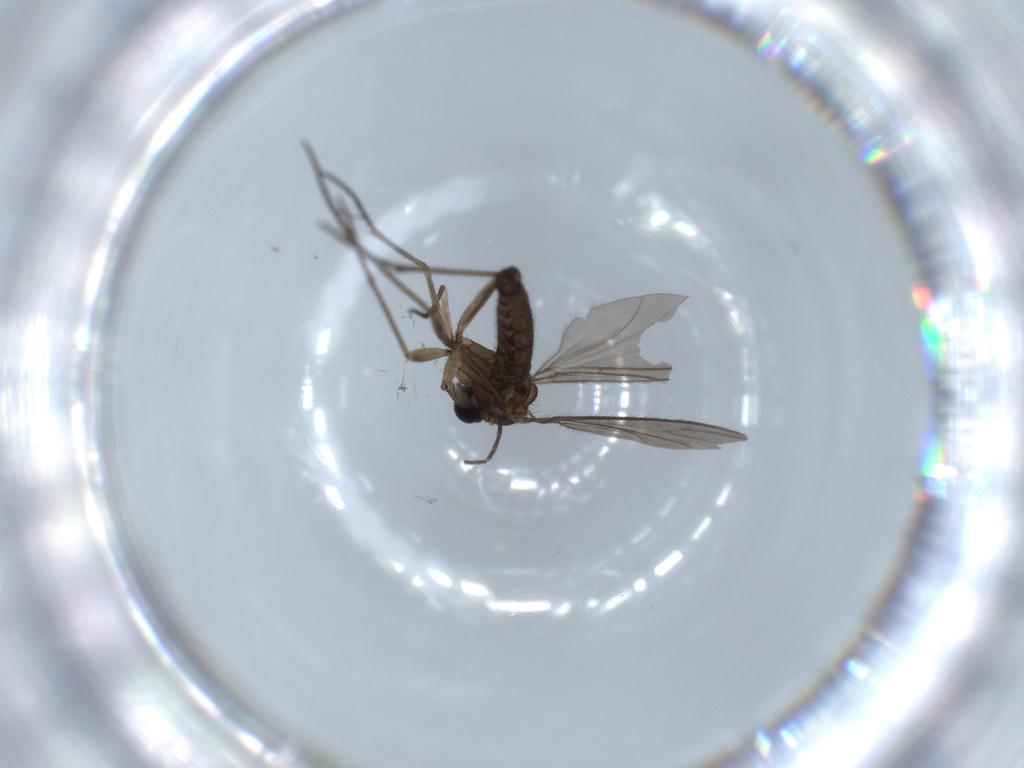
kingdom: Animalia
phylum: Arthropoda
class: Insecta
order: Diptera
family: Sciaridae
